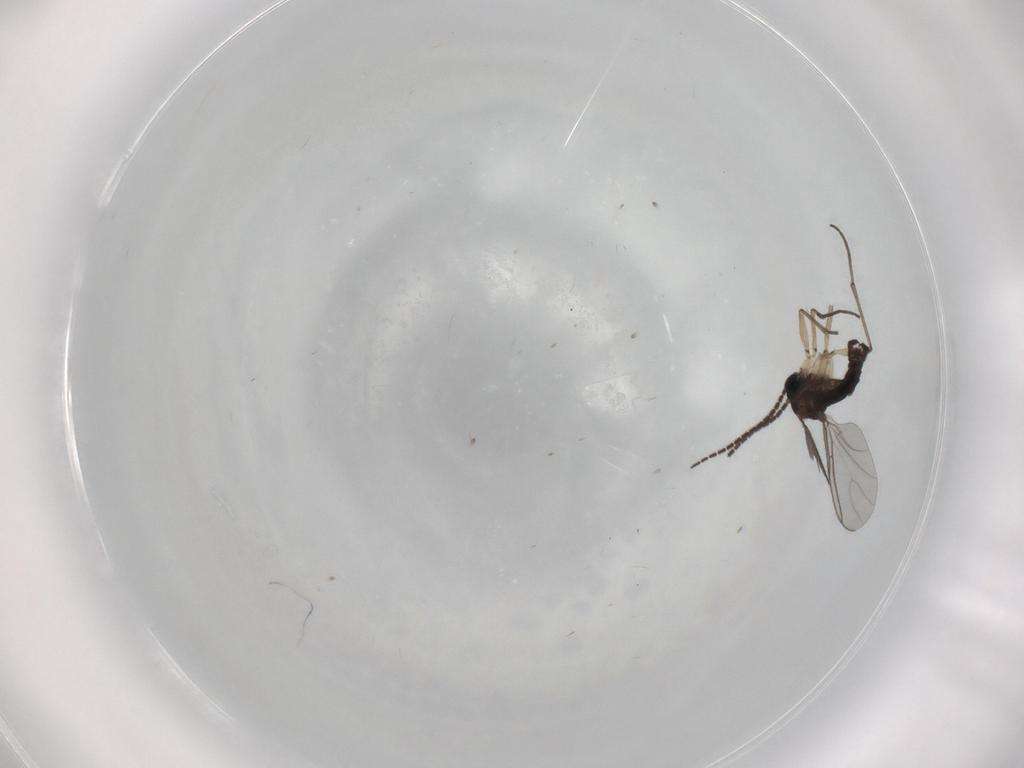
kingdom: Animalia
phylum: Arthropoda
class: Insecta
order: Diptera
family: Sciaridae
